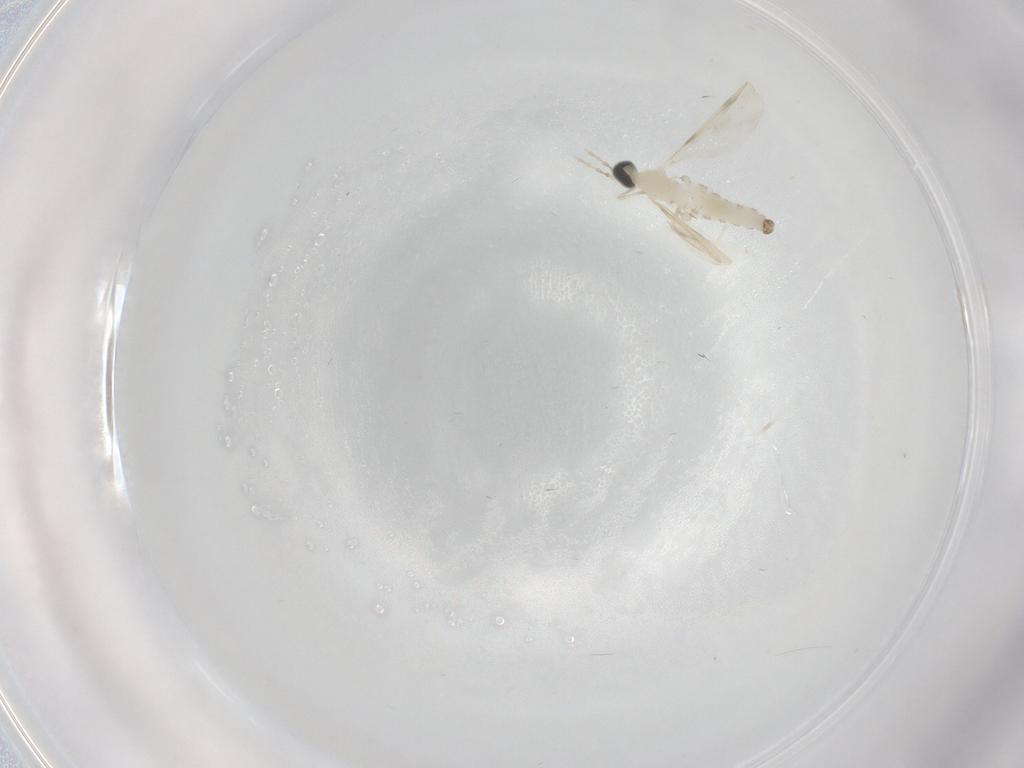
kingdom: Animalia
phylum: Arthropoda
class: Insecta
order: Diptera
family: Cecidomyiidae
